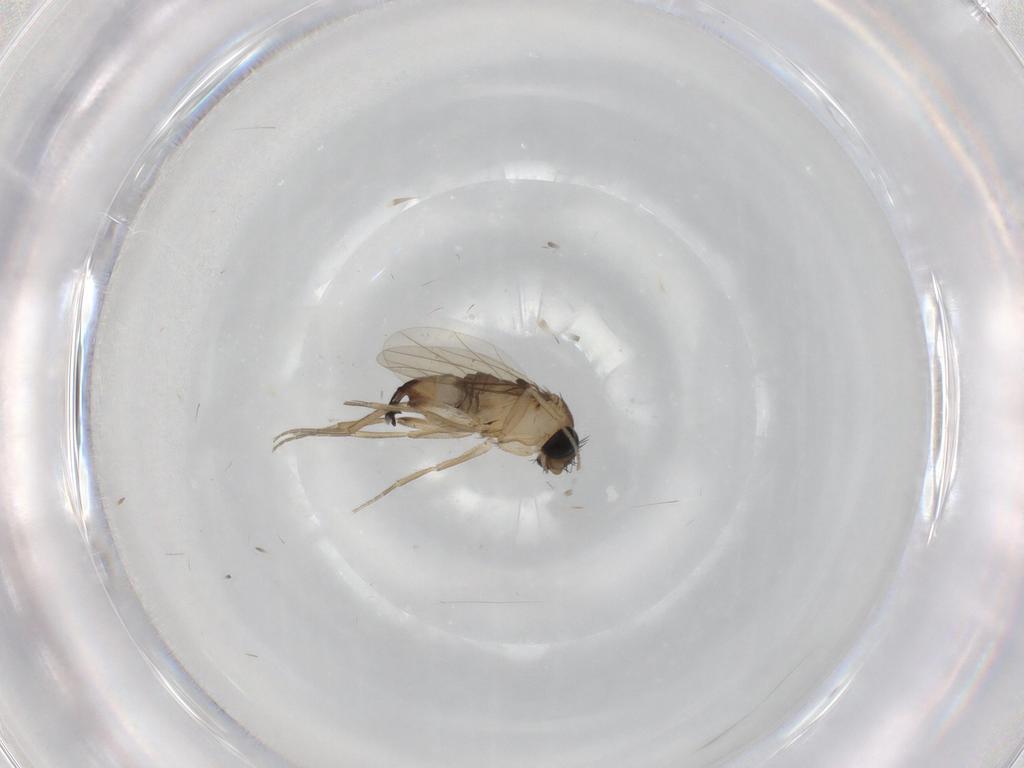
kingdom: Animalia
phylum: Arthropoda
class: Insecta
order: Diptera
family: Phoridae
